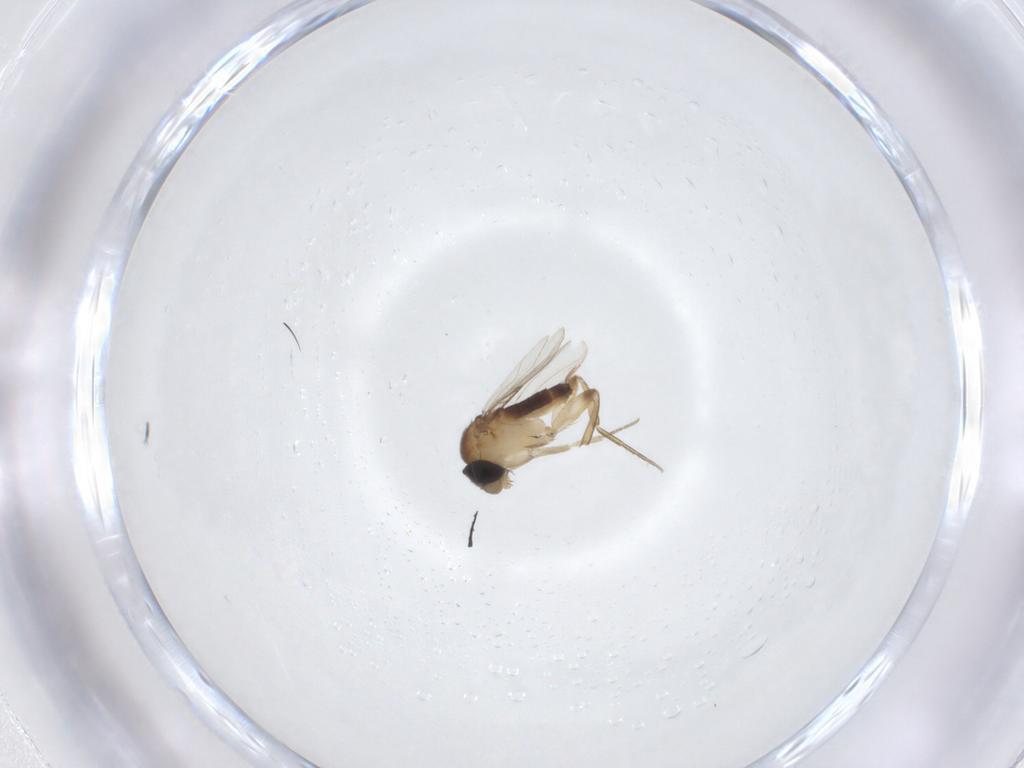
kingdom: Animalia
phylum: Arthropoda
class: Insecta
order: Diptera
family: Phoridae
